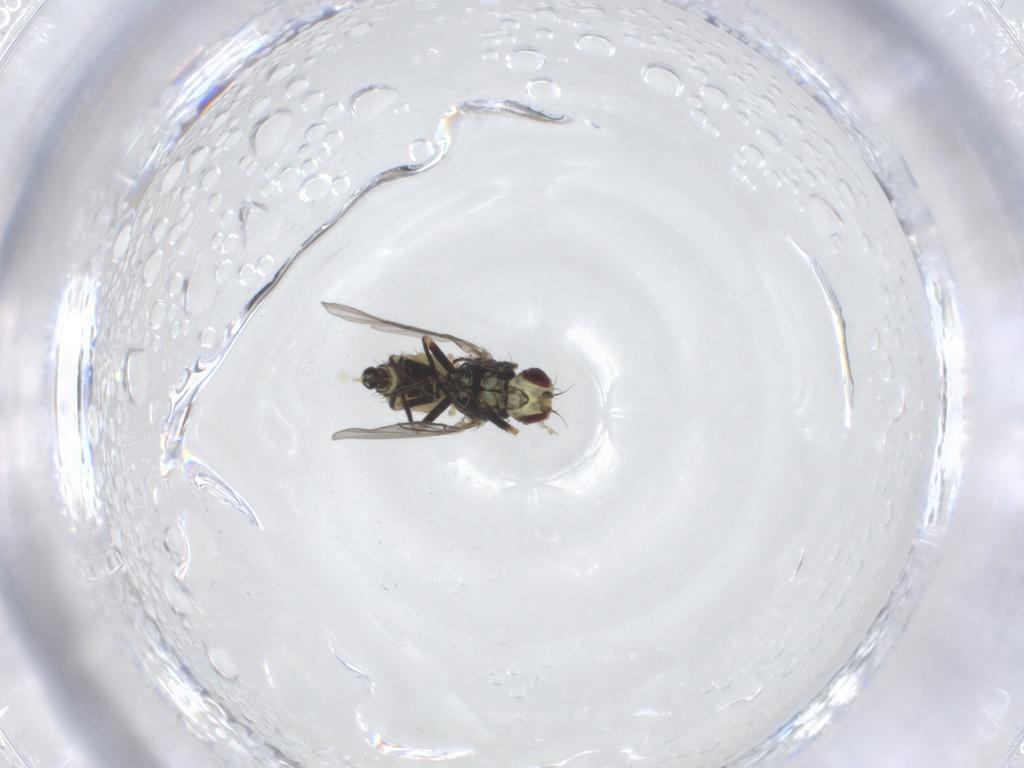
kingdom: Animalia
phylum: Arthropoda
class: Insecta
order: Diptera
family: Agromyzidae
